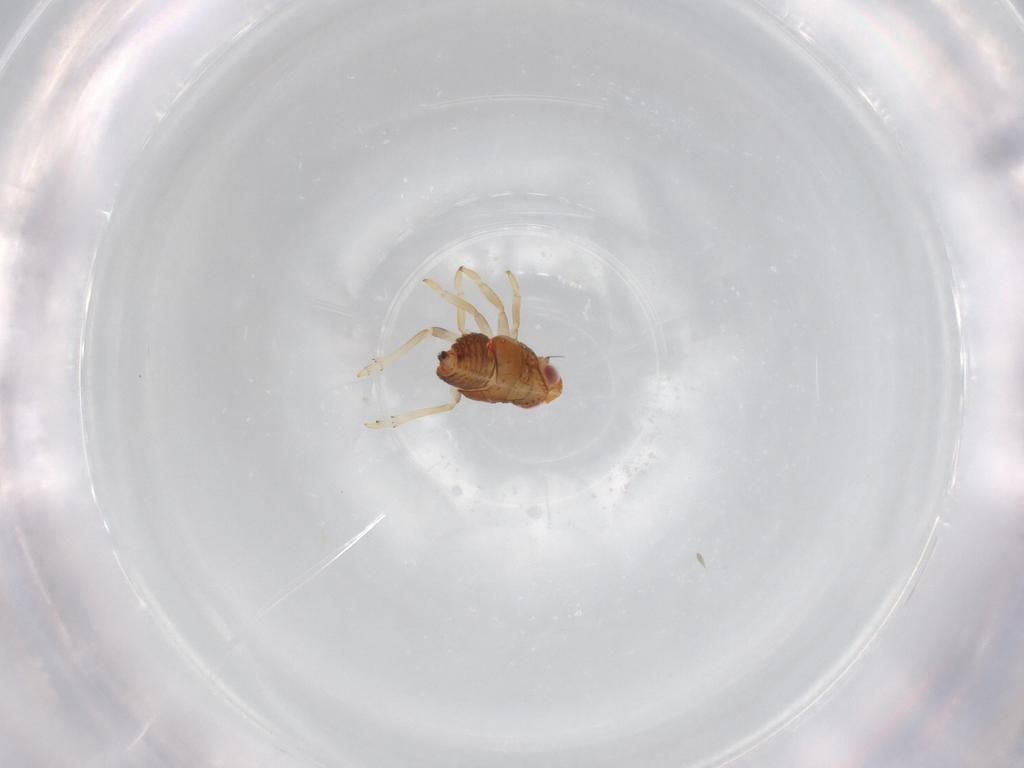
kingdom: Animalia
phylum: Arthropoda
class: Insecta
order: Hemiptera
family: Issidae
